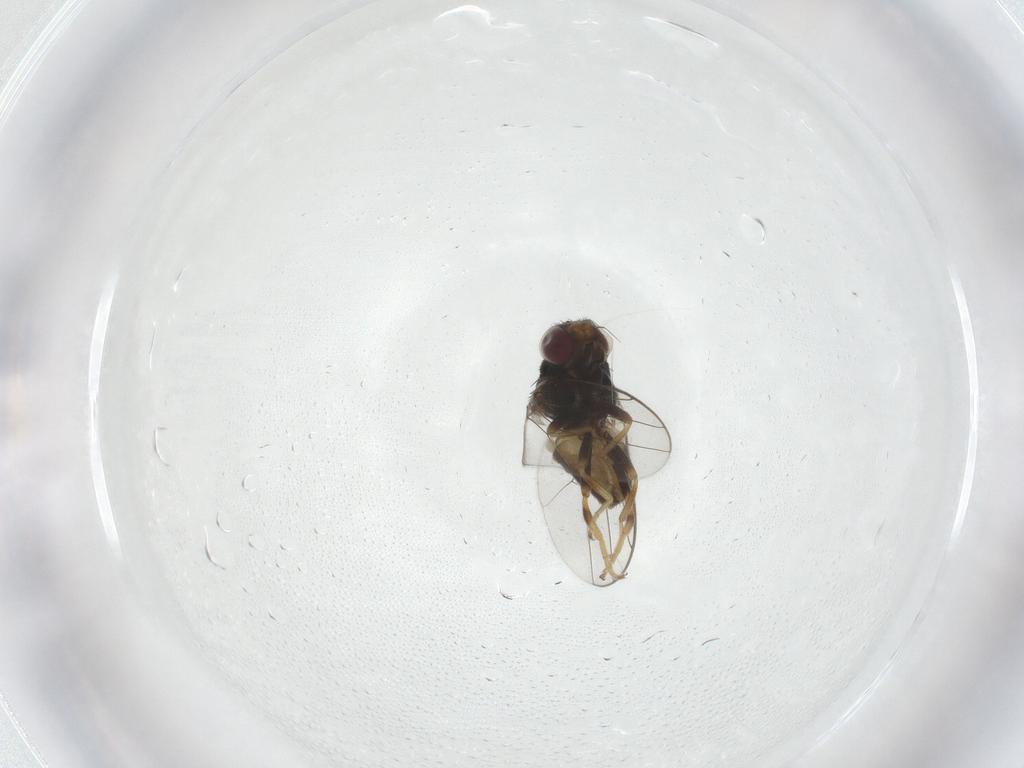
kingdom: Animalia
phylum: Arthropoda
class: Insecta
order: Diptera
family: Chloropidae
